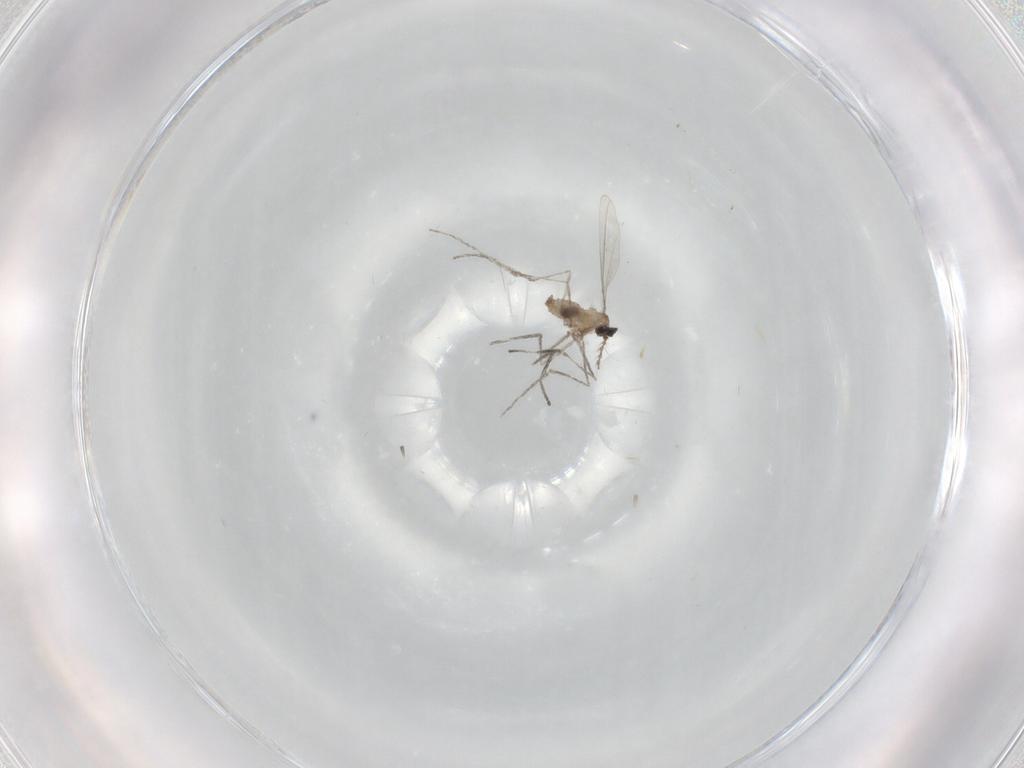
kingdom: Animalia
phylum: Arthropoda
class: Insecta
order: Diptera
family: Cecidomyiidae
